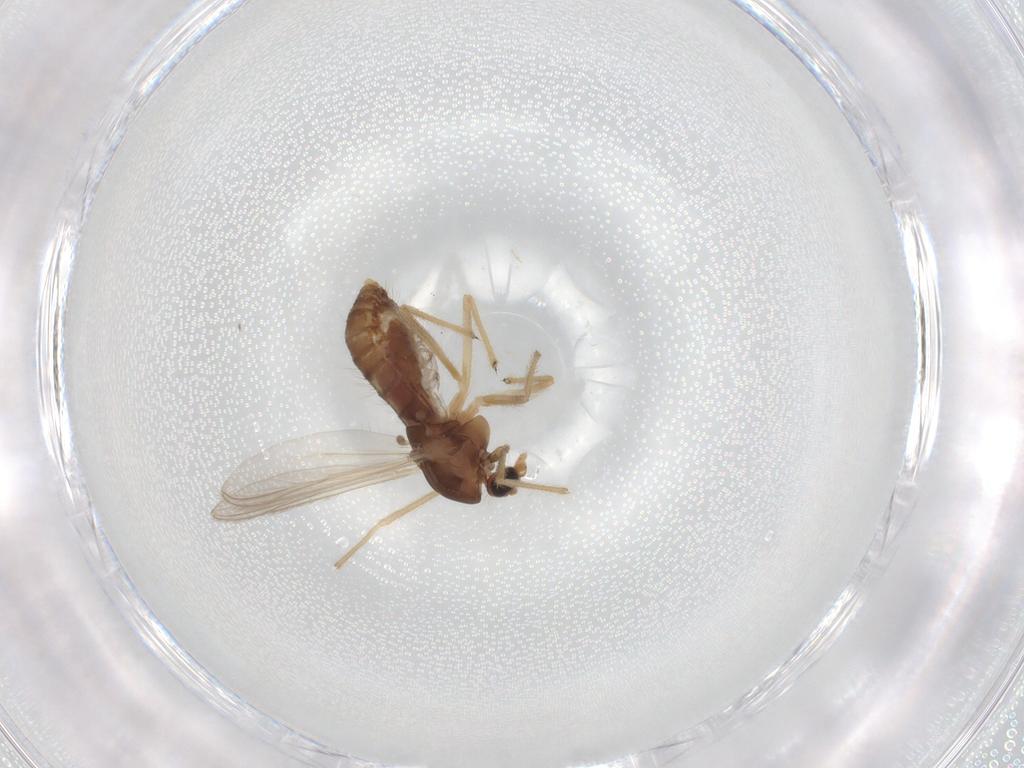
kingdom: Animalia
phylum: Arthropoda
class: Insecta
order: Diptera
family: Chironomidae
